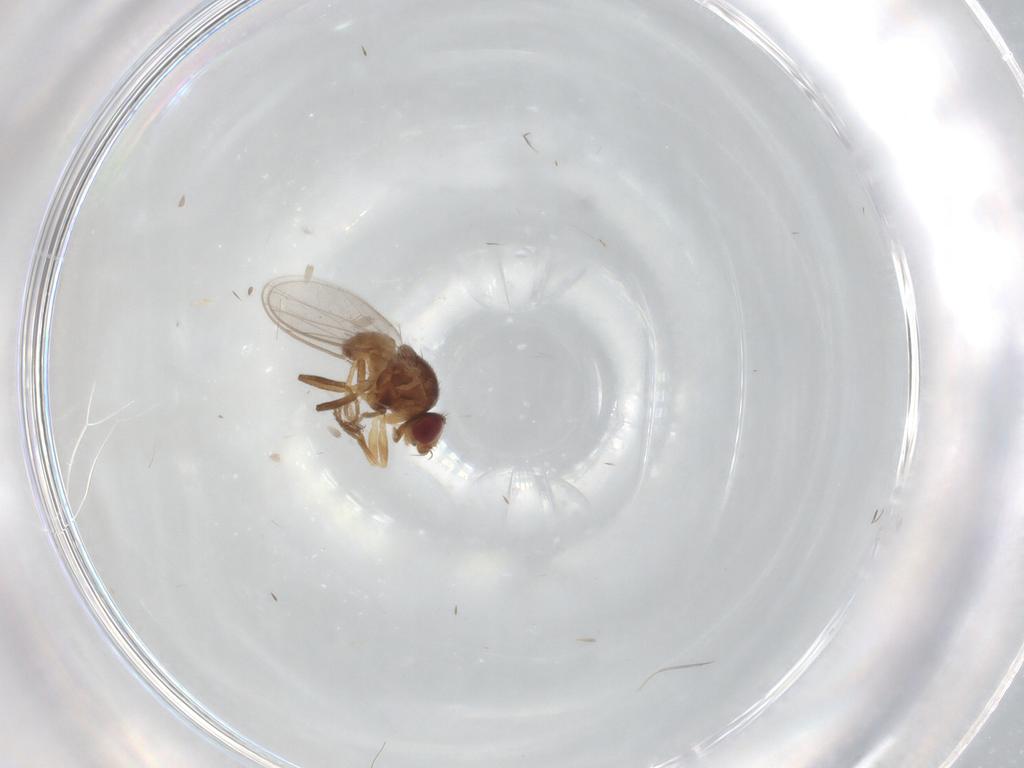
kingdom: Animalia
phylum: Arthropoda
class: Insecta
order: Diptera
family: Chloropidae
